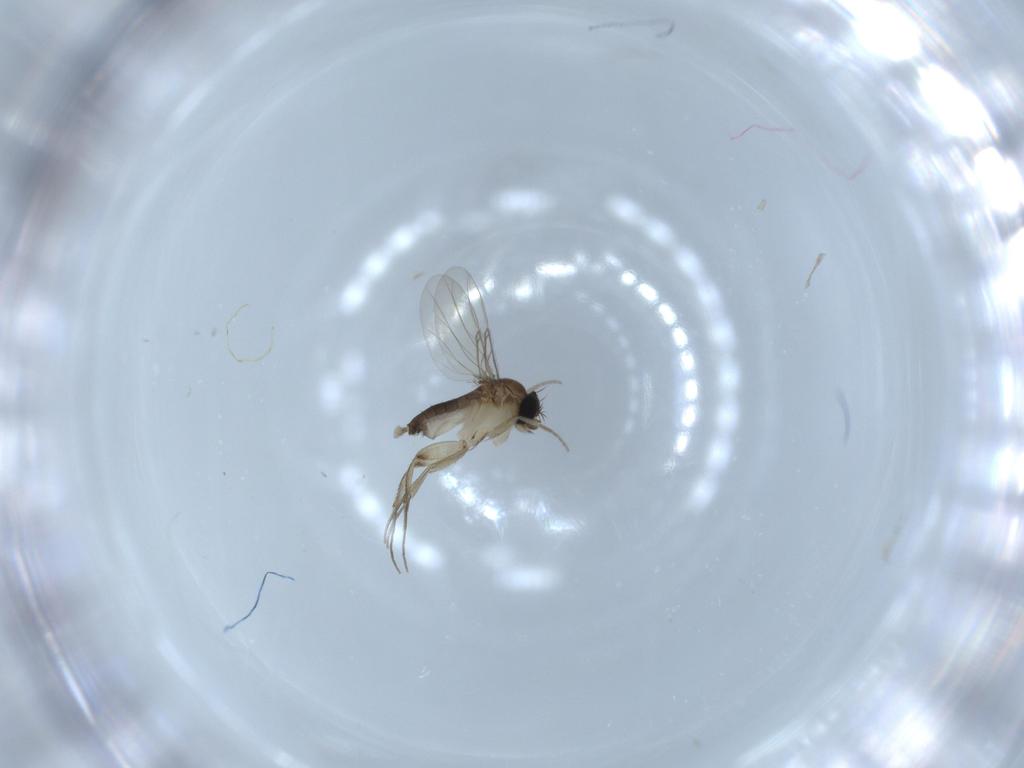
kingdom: Animalia
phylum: Arthropoda
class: Insecta
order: Diptera
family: Phoridae
